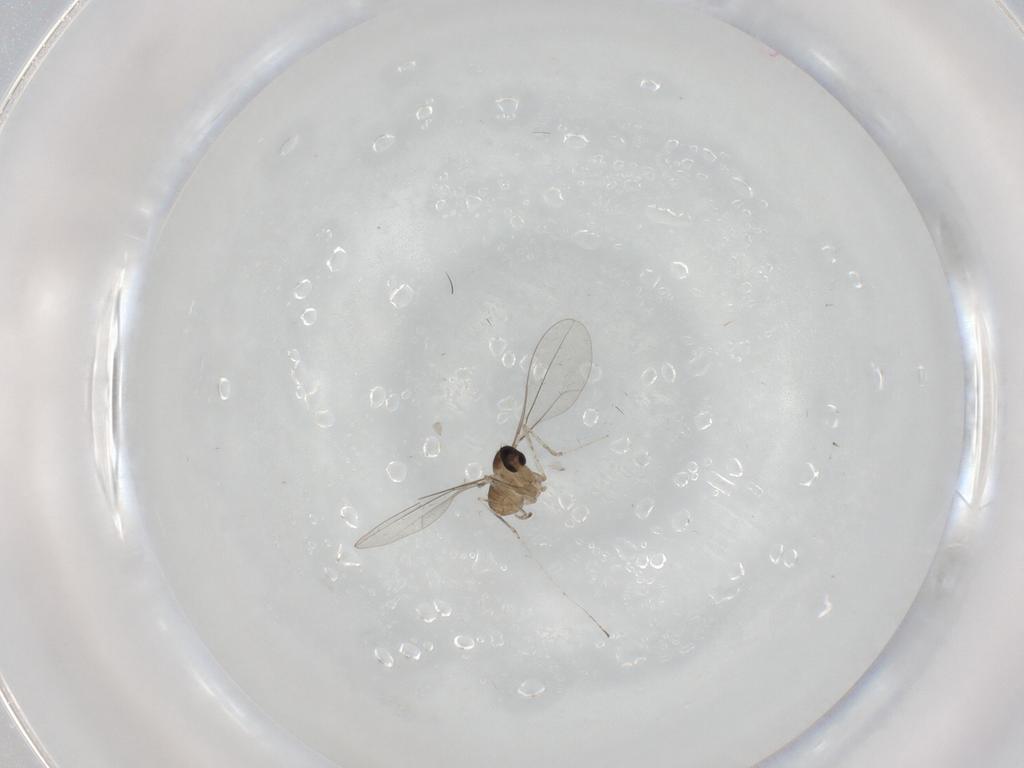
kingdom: Animalia
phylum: Arthropoda
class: Insecta
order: Diptera
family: Cecidomyiidae
